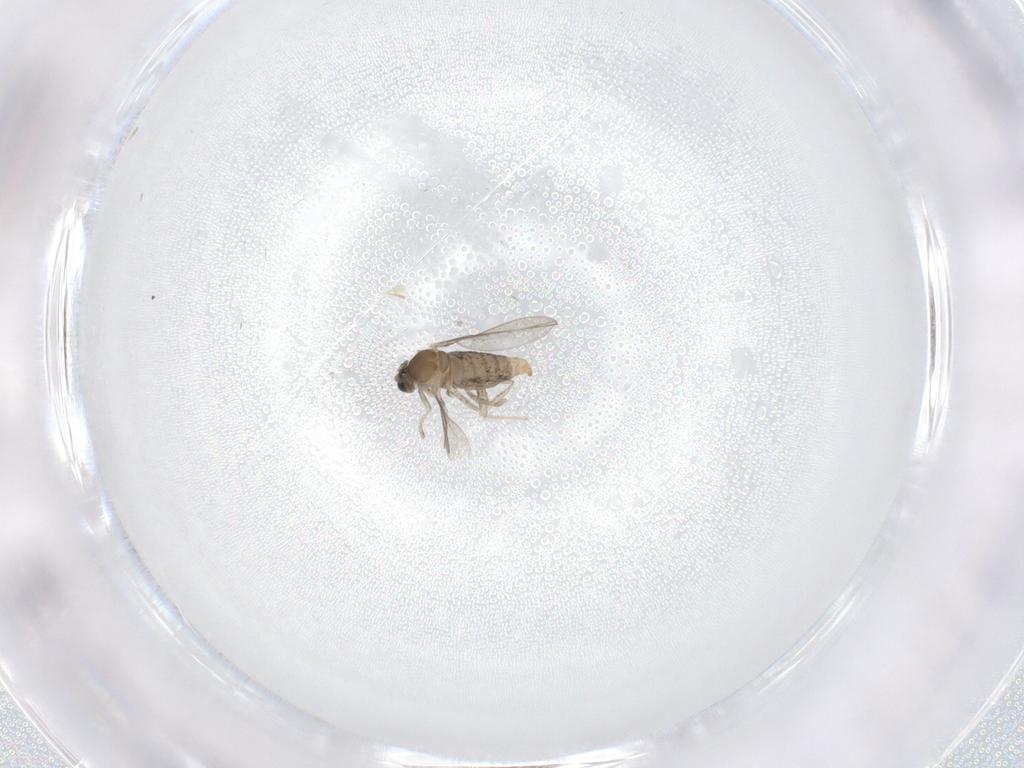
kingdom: Animalia
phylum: Arthropoda
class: Insecta
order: Diptera
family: Cecidomyiidae
